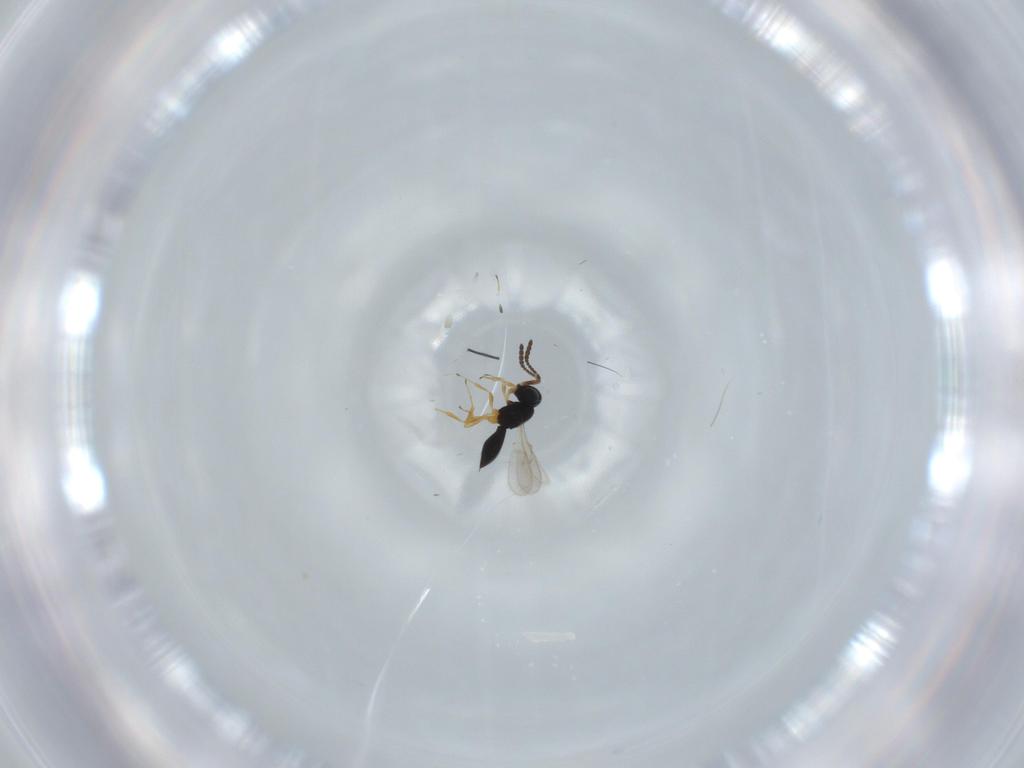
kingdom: Animalia
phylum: Arthropoda
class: Insecta
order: Hymenoptera
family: Scelionidae
